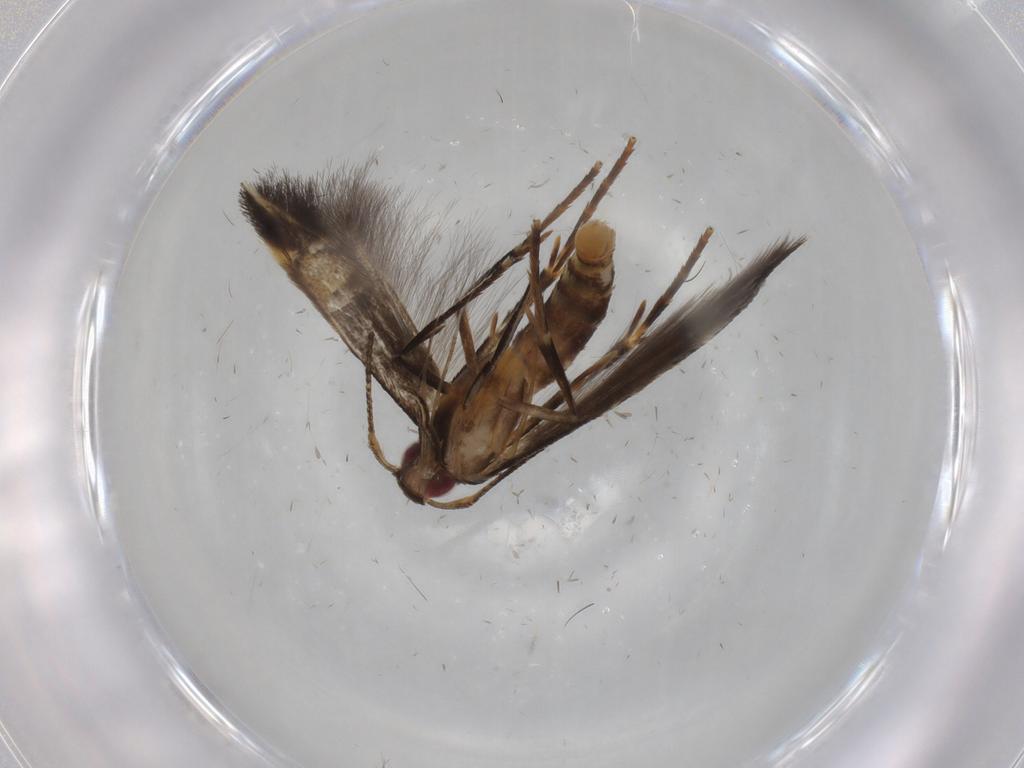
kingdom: Animalia
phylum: Arthropoda
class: Insecta
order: Lepidoptera
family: Cosmopterigidae
